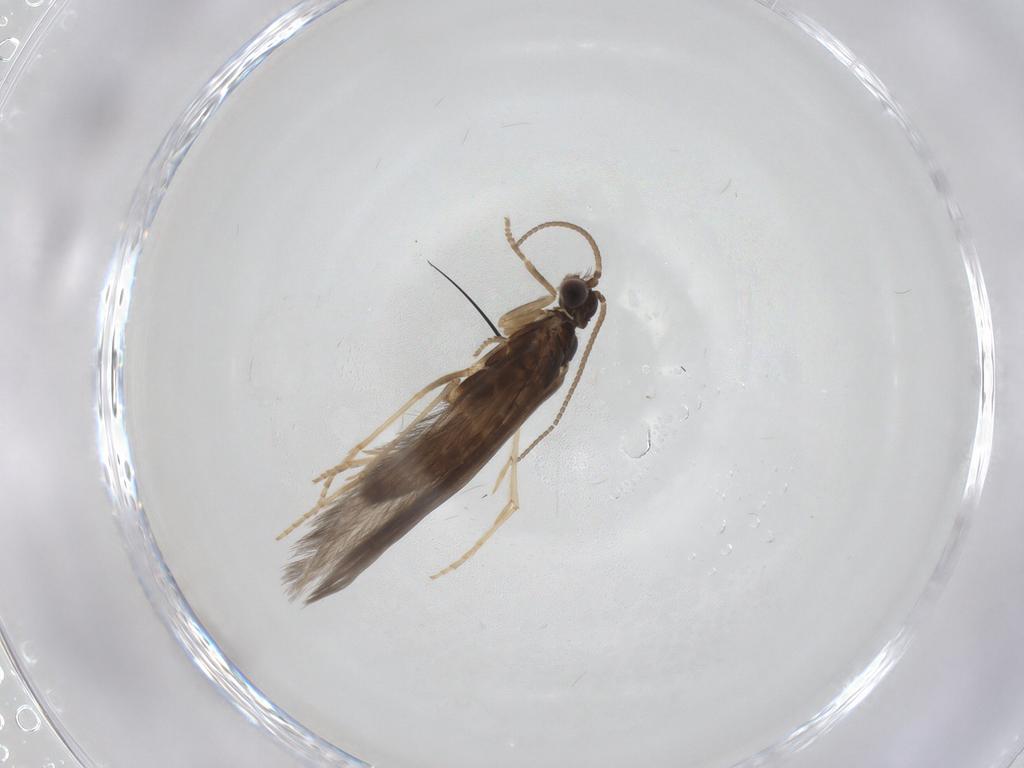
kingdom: Animalia
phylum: Arthropoda
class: Insecta
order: Trichoptera
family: Hydroptilidae
